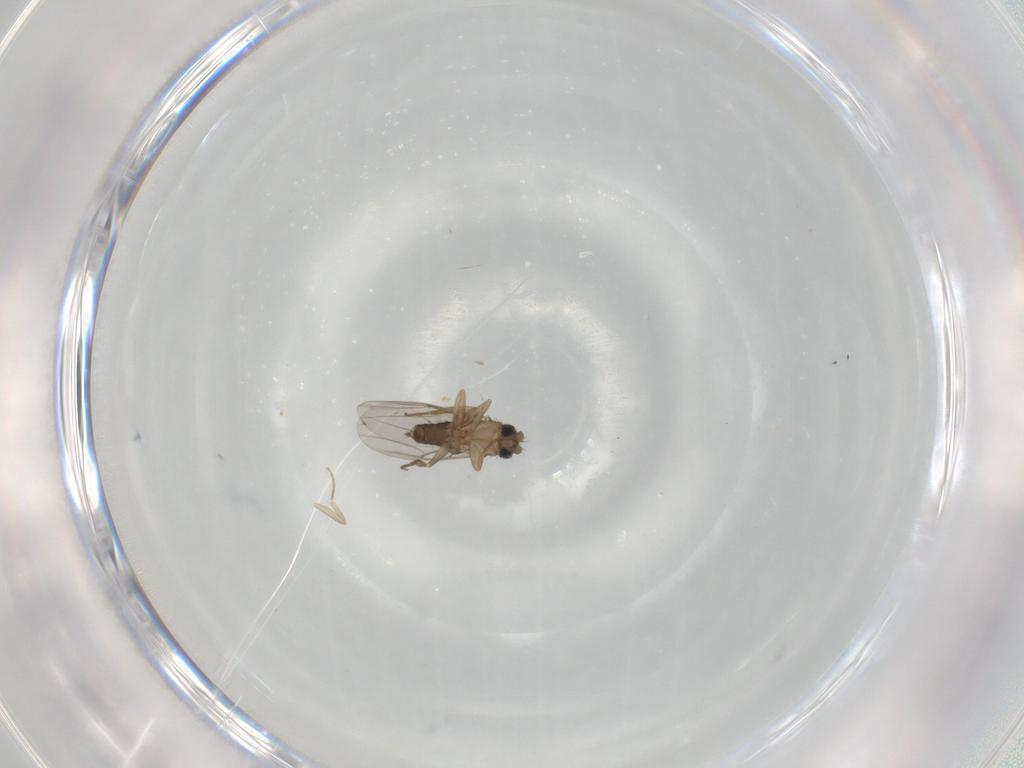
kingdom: Animalia
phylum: Arthropoda
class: Insecta
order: Diptera
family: Chironomidae
